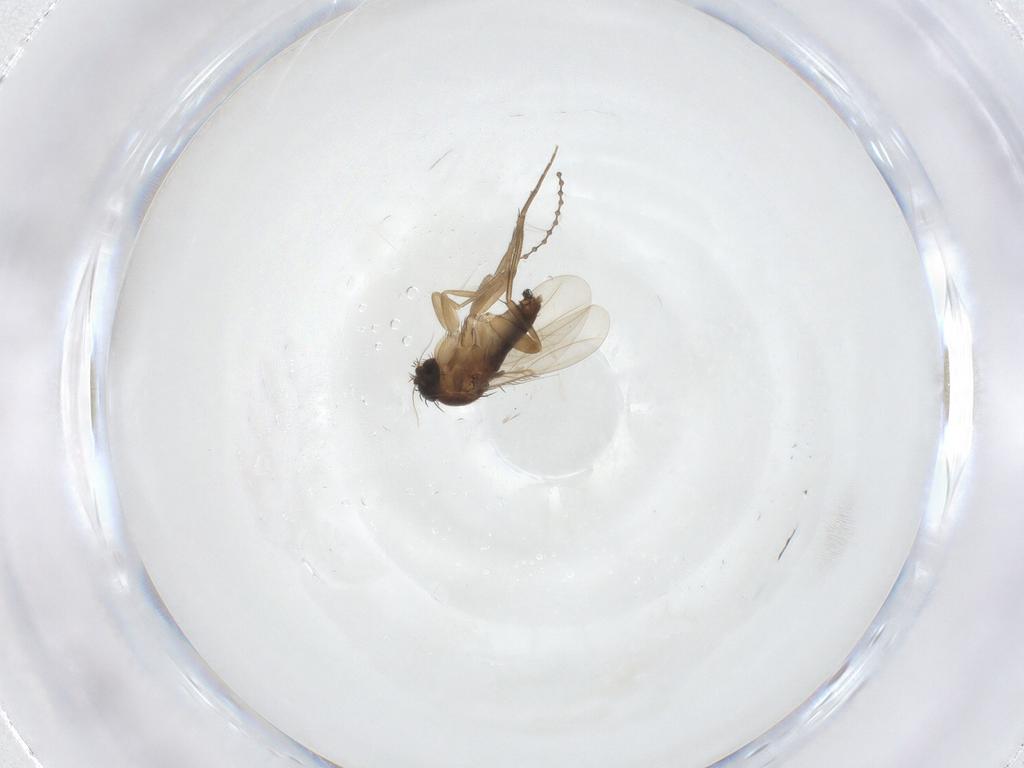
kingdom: Animalia
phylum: Arthropoda
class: Insecta
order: Diptera
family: Phoridae
